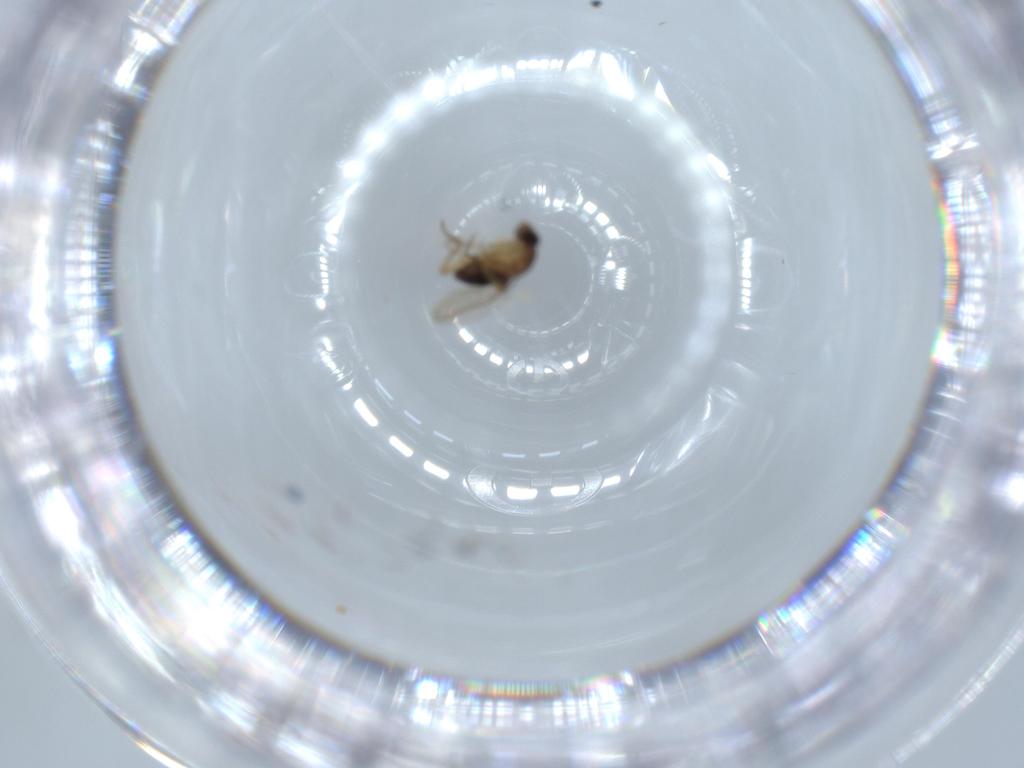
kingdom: Animalia
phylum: Arthropoda
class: Insecta
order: Diptera
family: Phoridae
